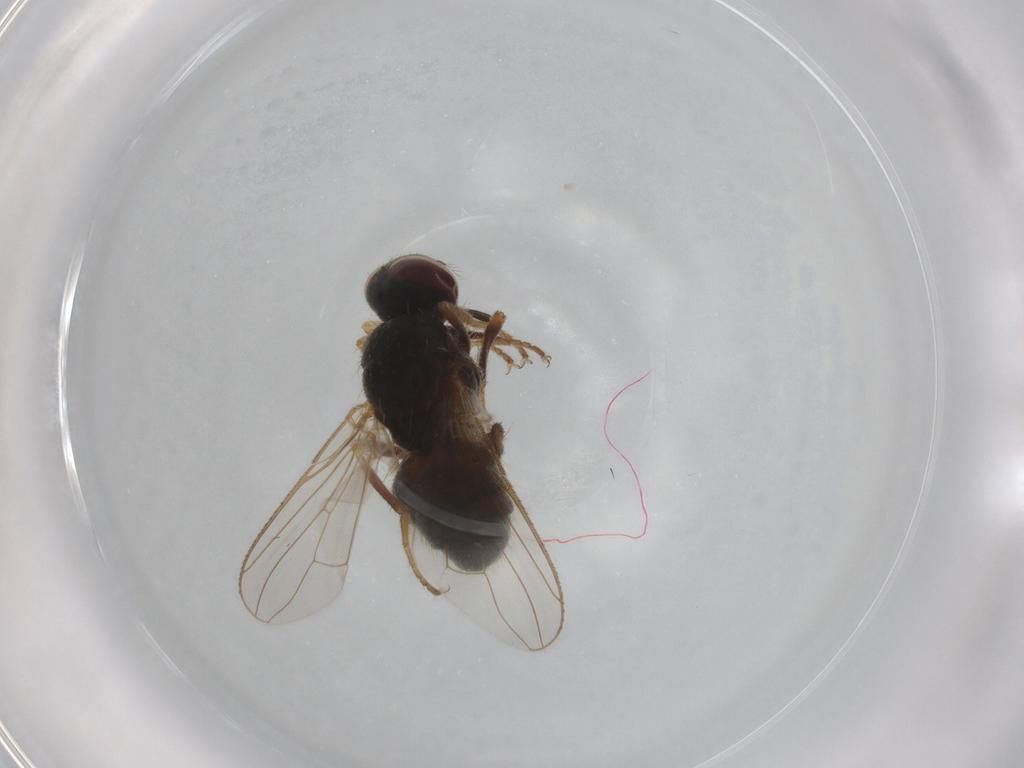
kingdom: Animalia
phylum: Arthropoda
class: Insecta
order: Diptera
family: Muscidae
